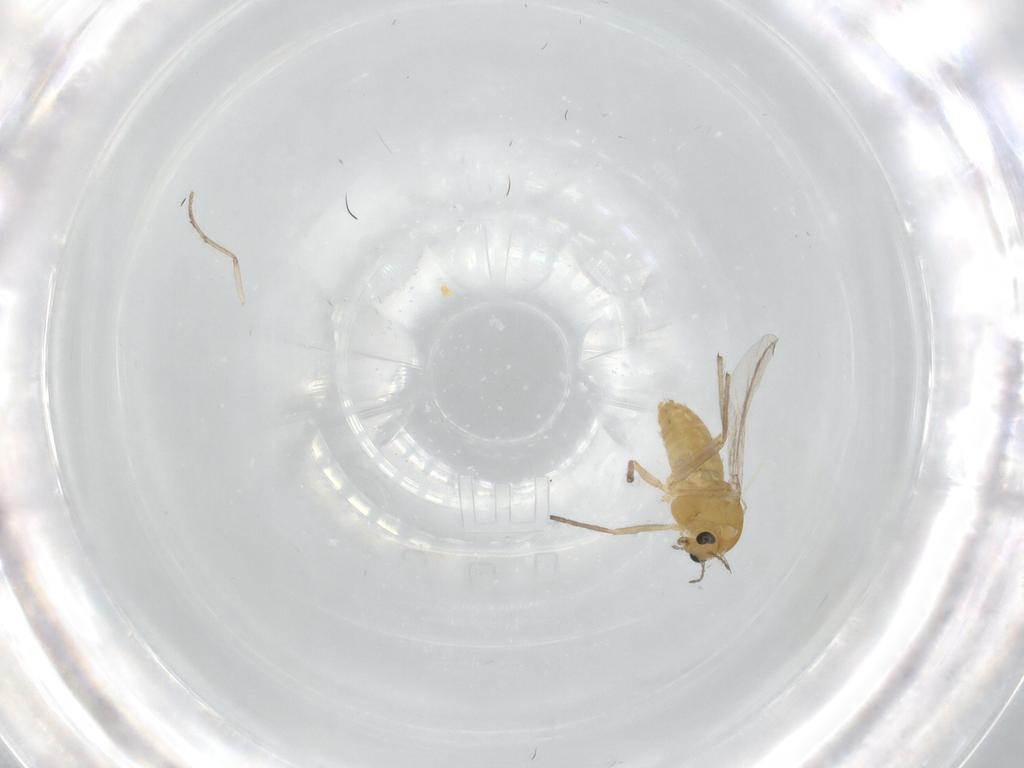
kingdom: Animalia
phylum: Arthropoda
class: Insecta
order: Diptera
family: Chironomidae
